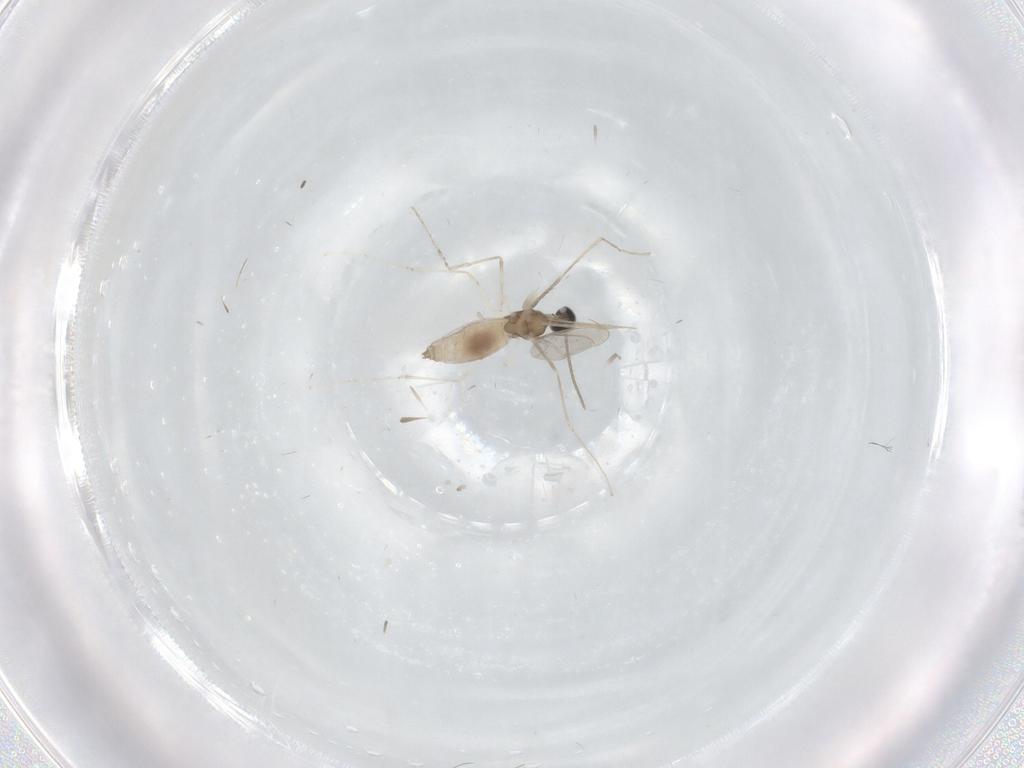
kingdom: Animalia
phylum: Arthropoda
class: Insecta
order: Diptera
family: Cecidomyiidae
